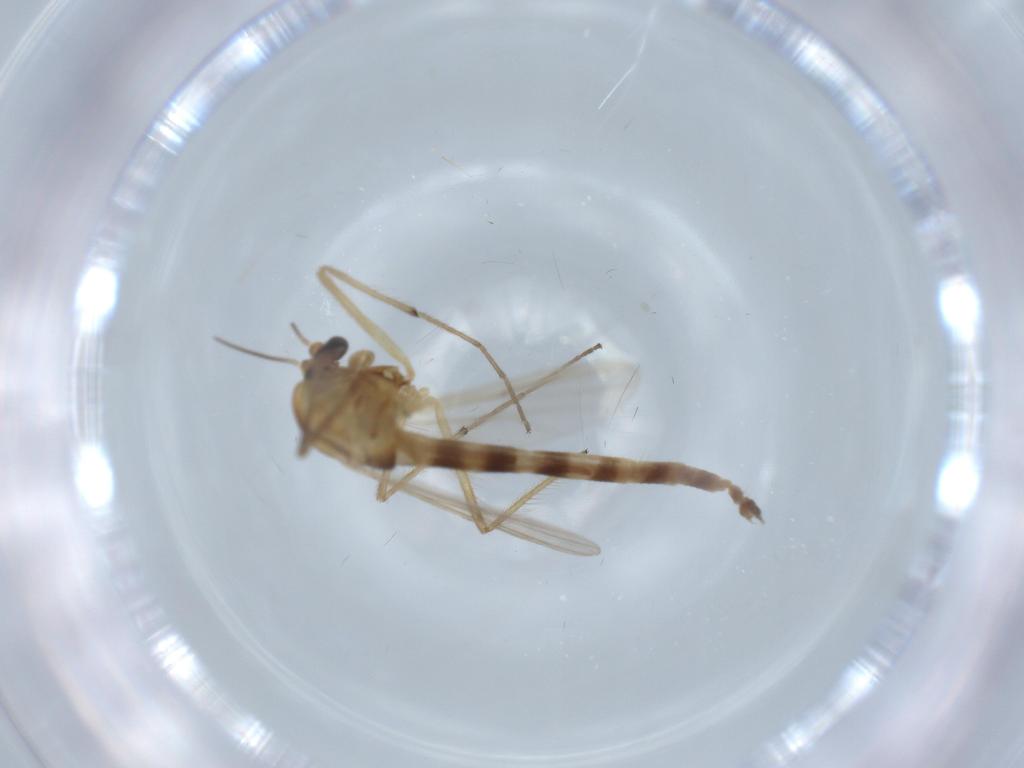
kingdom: Animalia
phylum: Arthropoda
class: Insecta
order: Diptera
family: Cecidomyiidae
